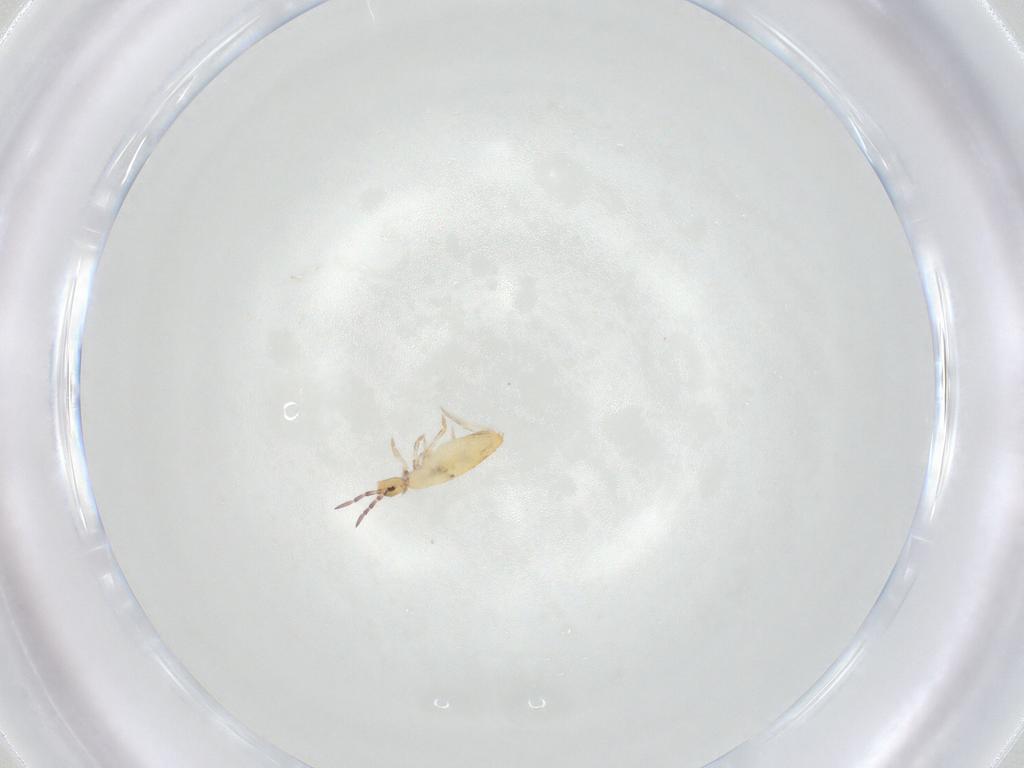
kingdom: Animalia
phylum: Arthropoda
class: Collembola
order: Entomobryomorpha
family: Entomobryidae
